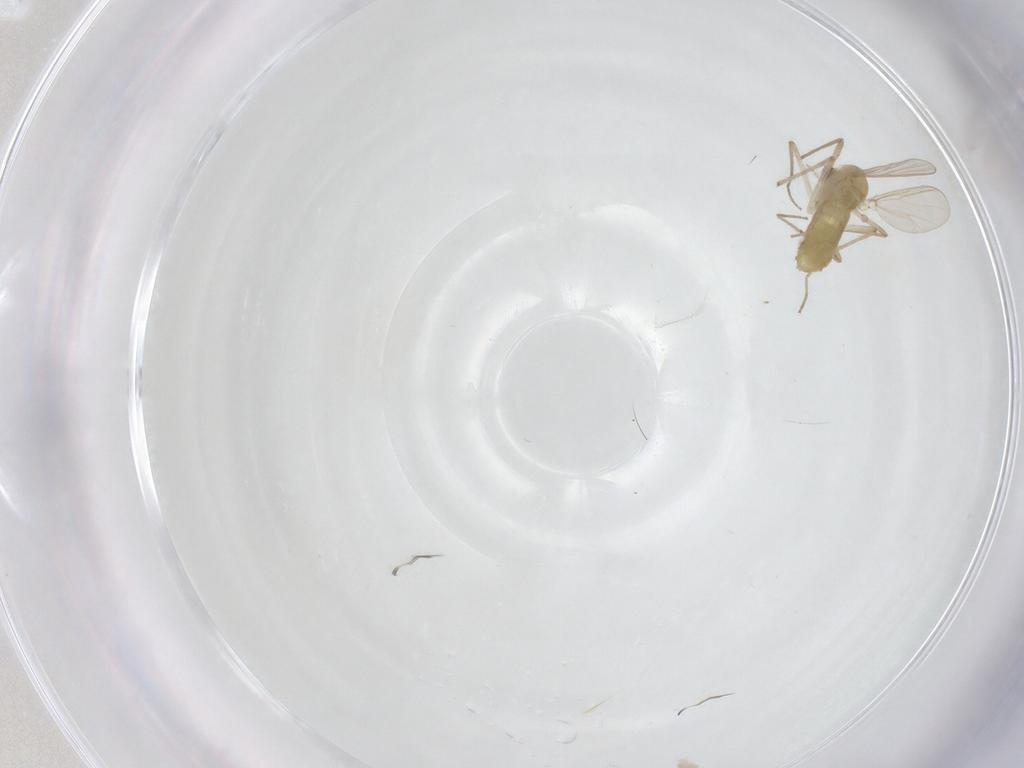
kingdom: Animalia
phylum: Arthropoda
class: Insecta
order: Diptera
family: Chironomidae
